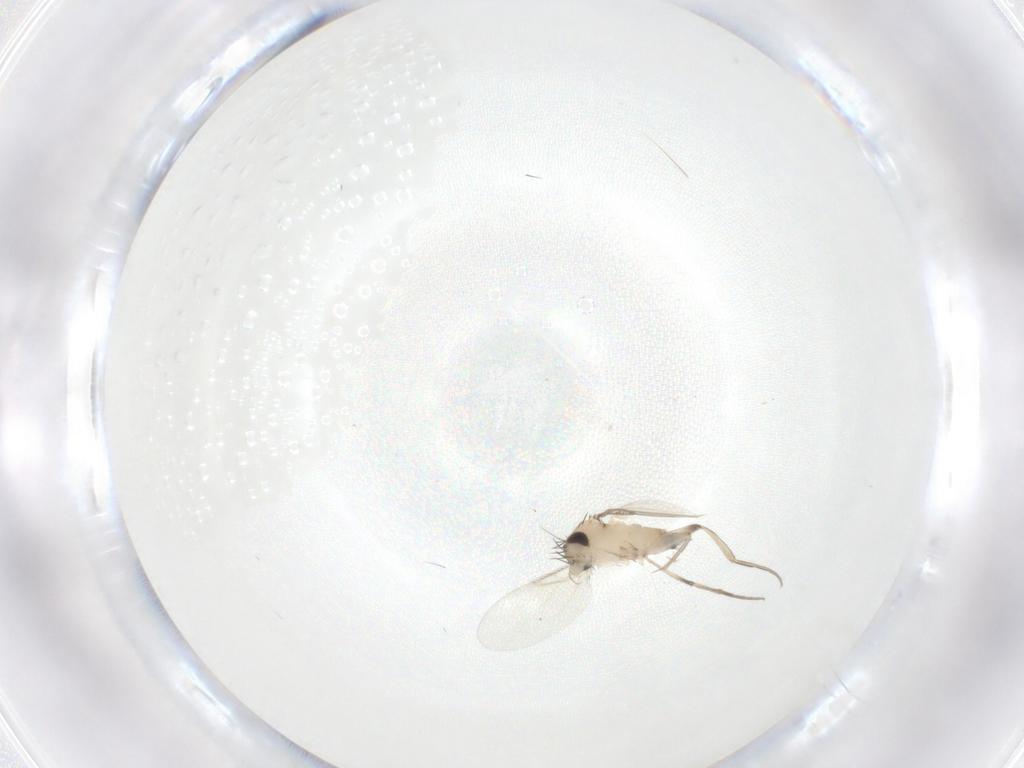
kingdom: Animalia
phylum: Arthropoda
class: Insecta
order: Diptera
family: Phoridae
